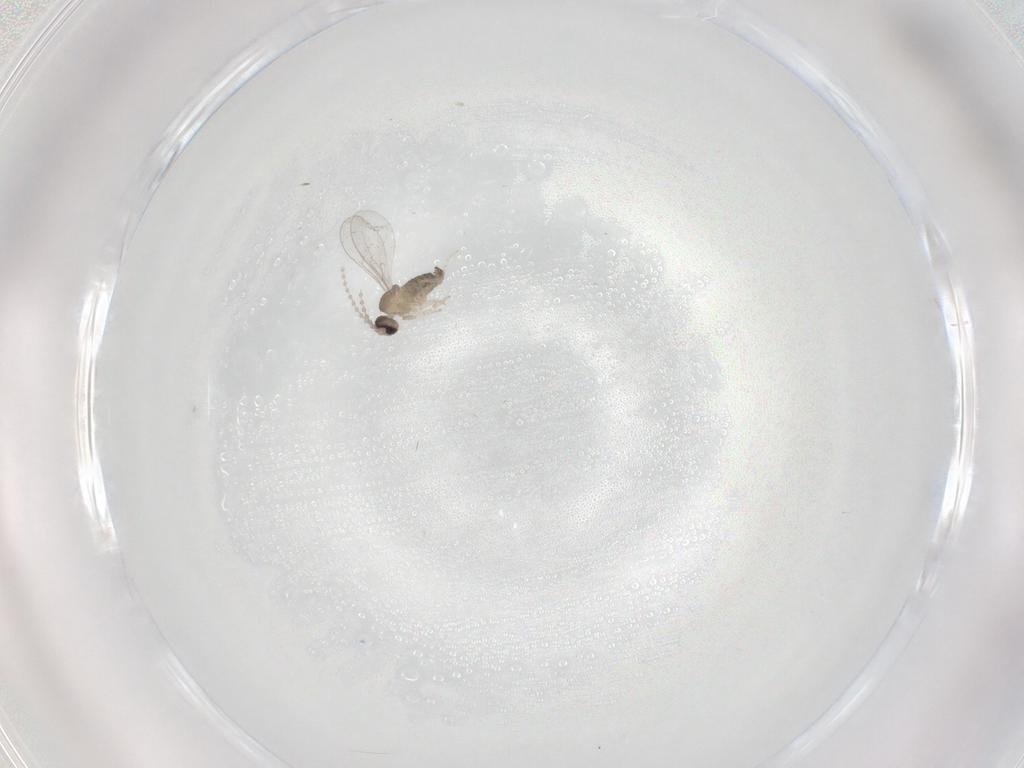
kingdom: Animalia
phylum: Arthropoda
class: Insecta
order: Diptera
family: Cecidomyiidae
